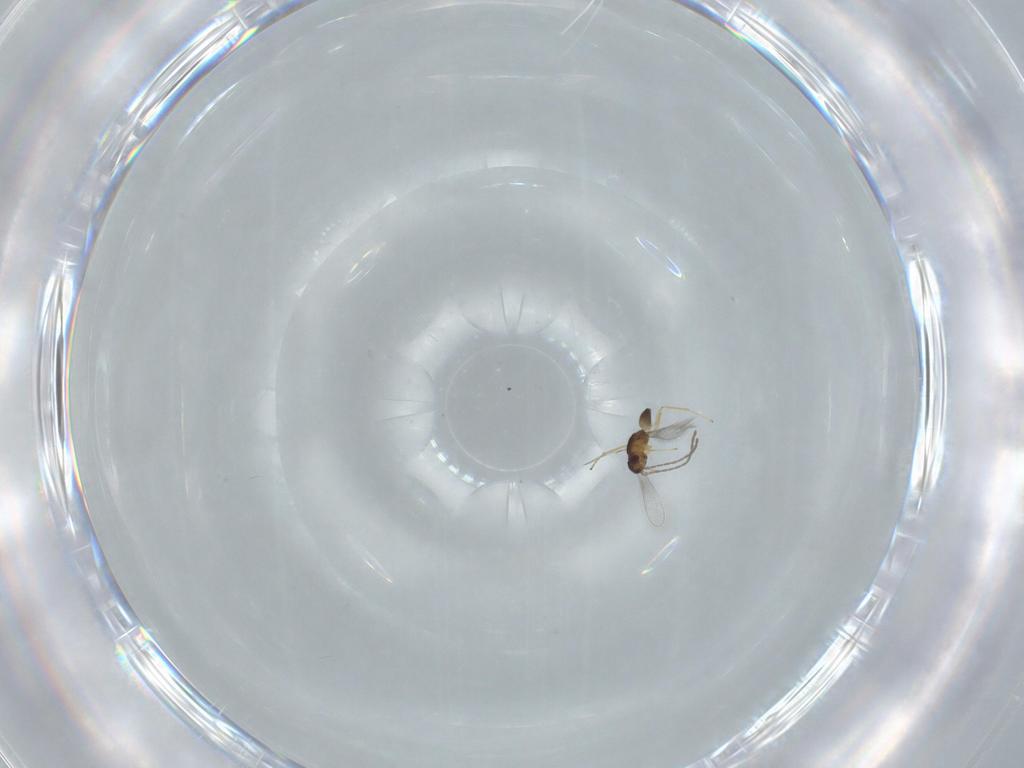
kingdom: Animalia
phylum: Arthropoda
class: Insecta
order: Hymenoptera
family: Mymaridae
